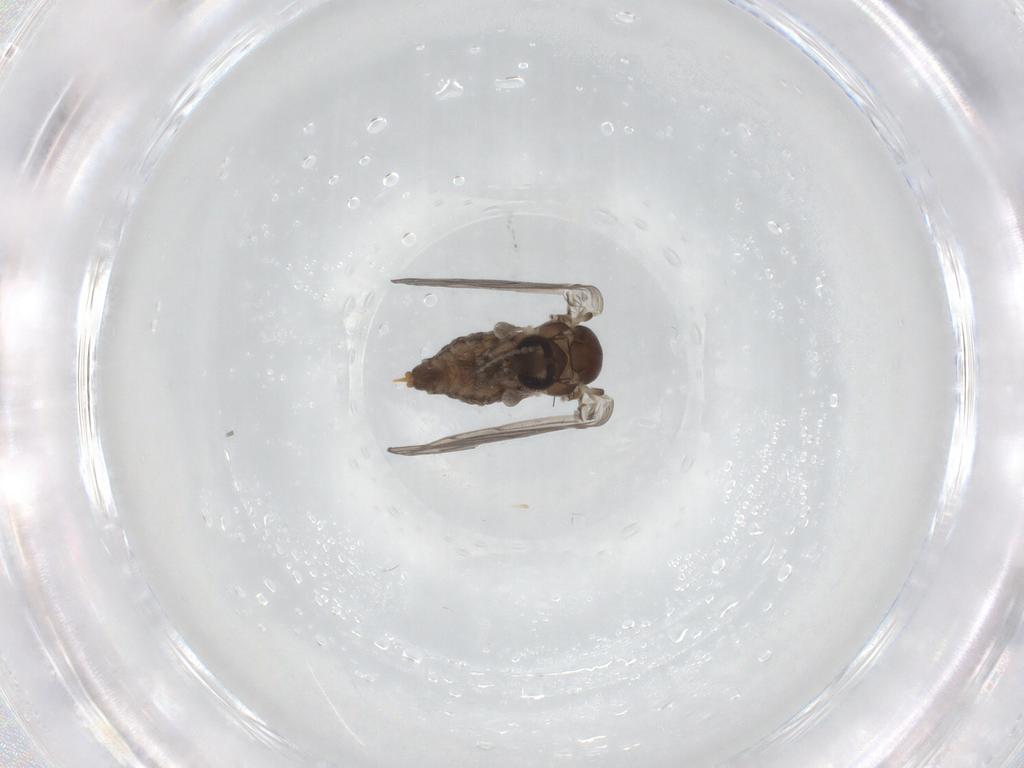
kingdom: Animalia
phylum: Arthropoda
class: Insecta
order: Diptera
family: Psychodidae
